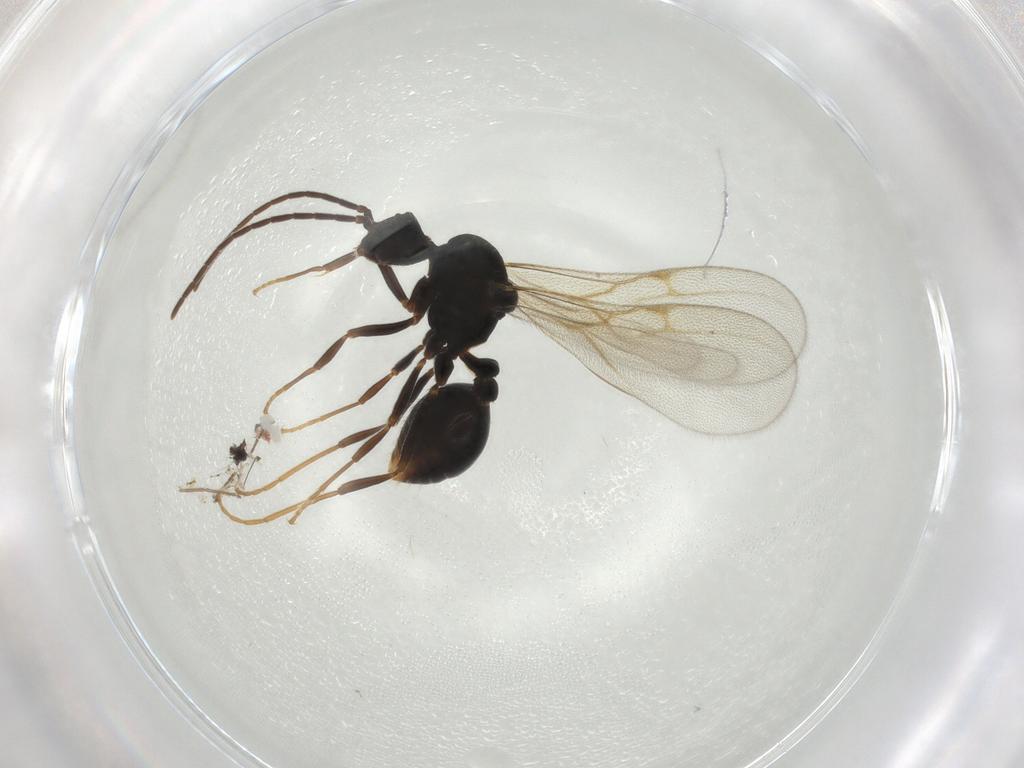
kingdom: Animalia
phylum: Arthropoda
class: Insecta
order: Hymenoptera
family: Formicidae
